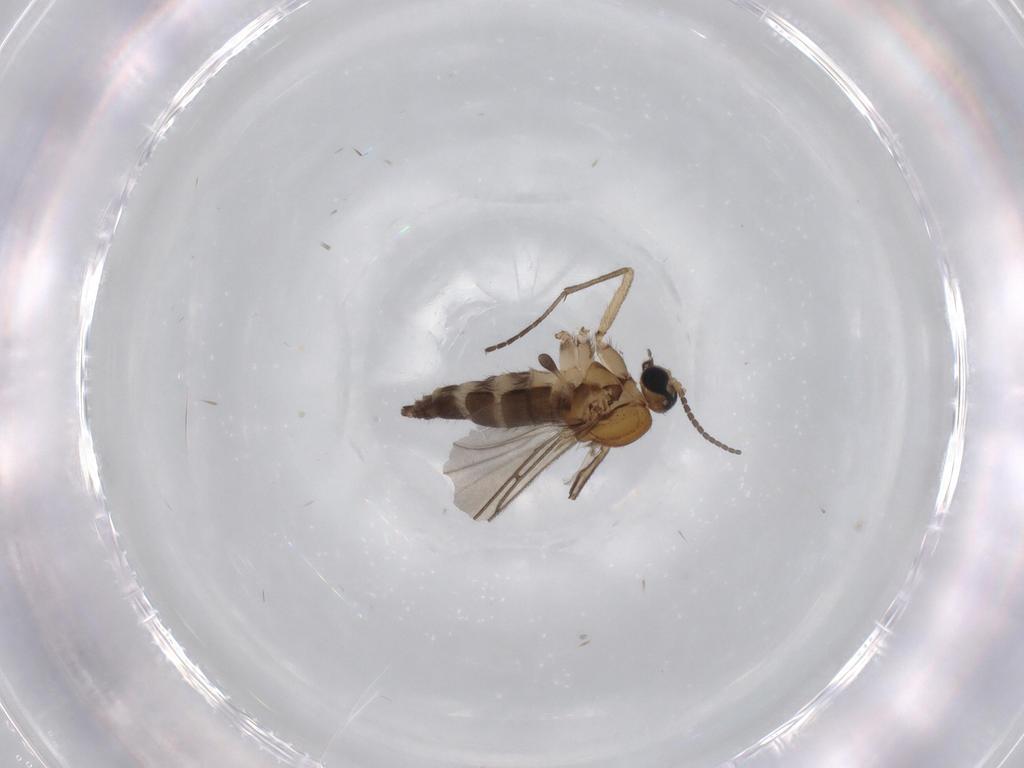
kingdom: Animalia
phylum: Arthropoda
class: Insecta
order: Diptera
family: Sciaridae
